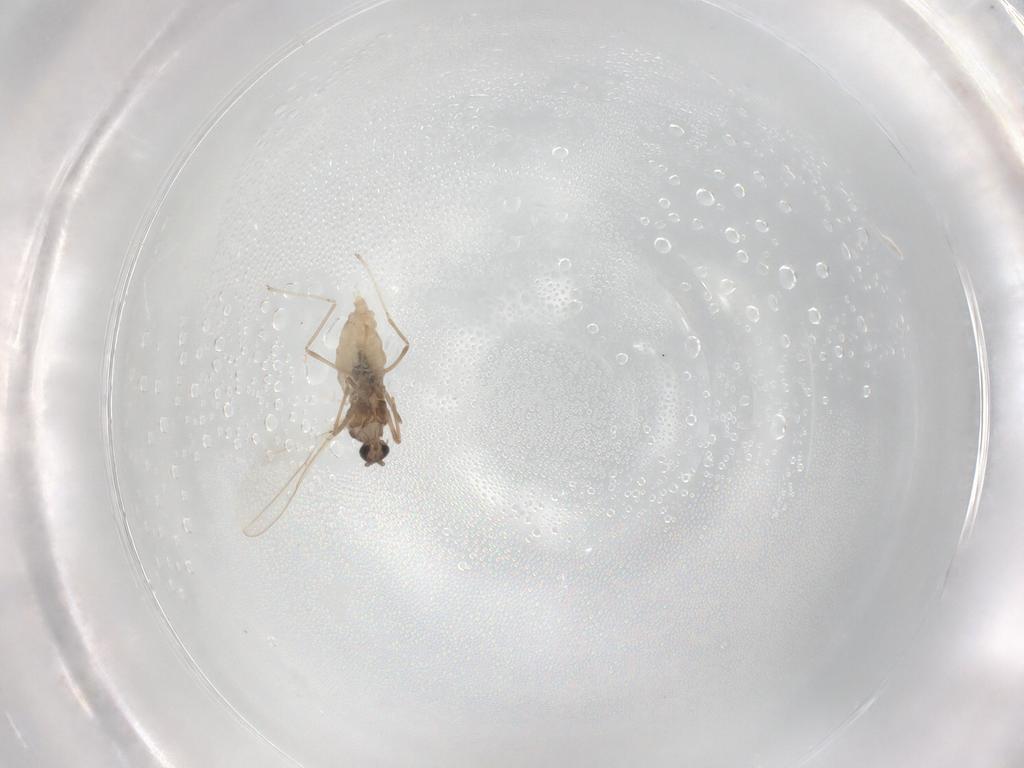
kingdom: Animalia
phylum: Arthropoda
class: Insecta
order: Diptera
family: Cecidomyiidae
